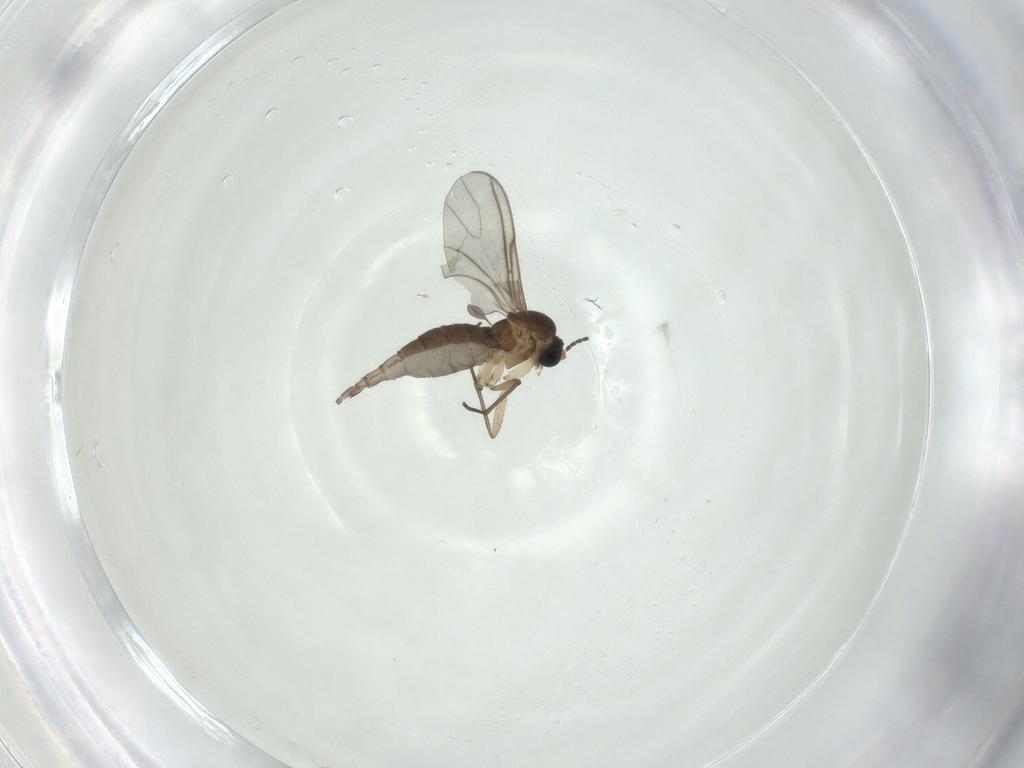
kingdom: Animalia
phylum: Arthropoda
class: Insecta
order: Diptera
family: Sciaridae
